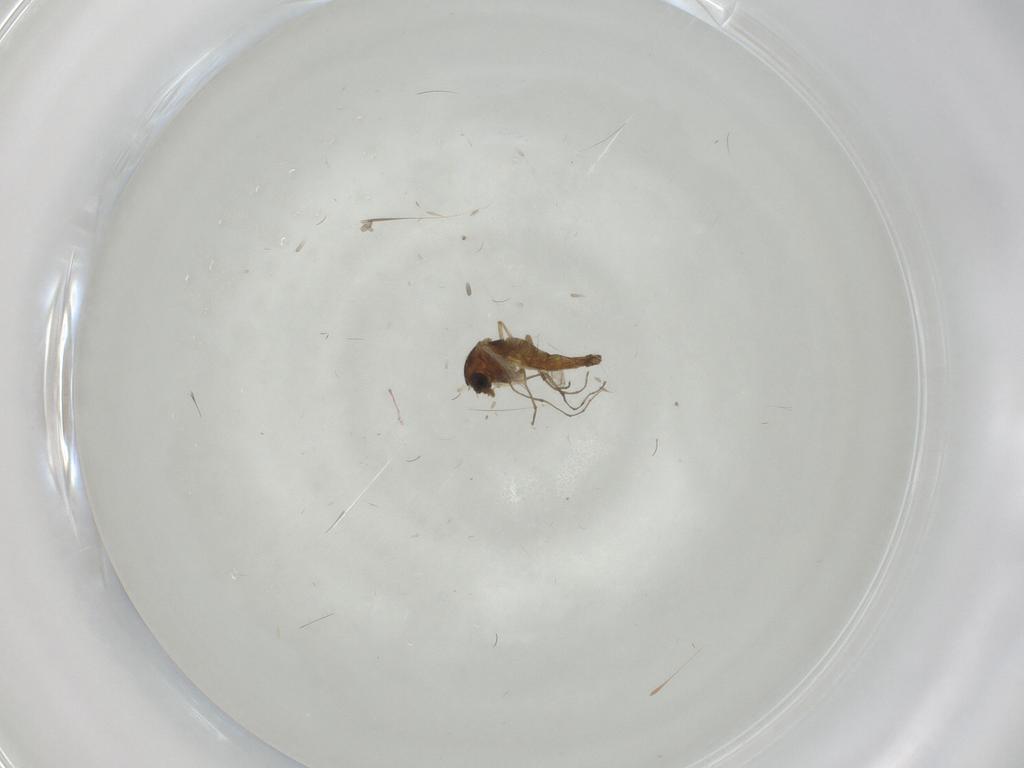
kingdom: Animalia
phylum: Arthropoda
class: Insecta
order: Diptera
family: Chironomidae
